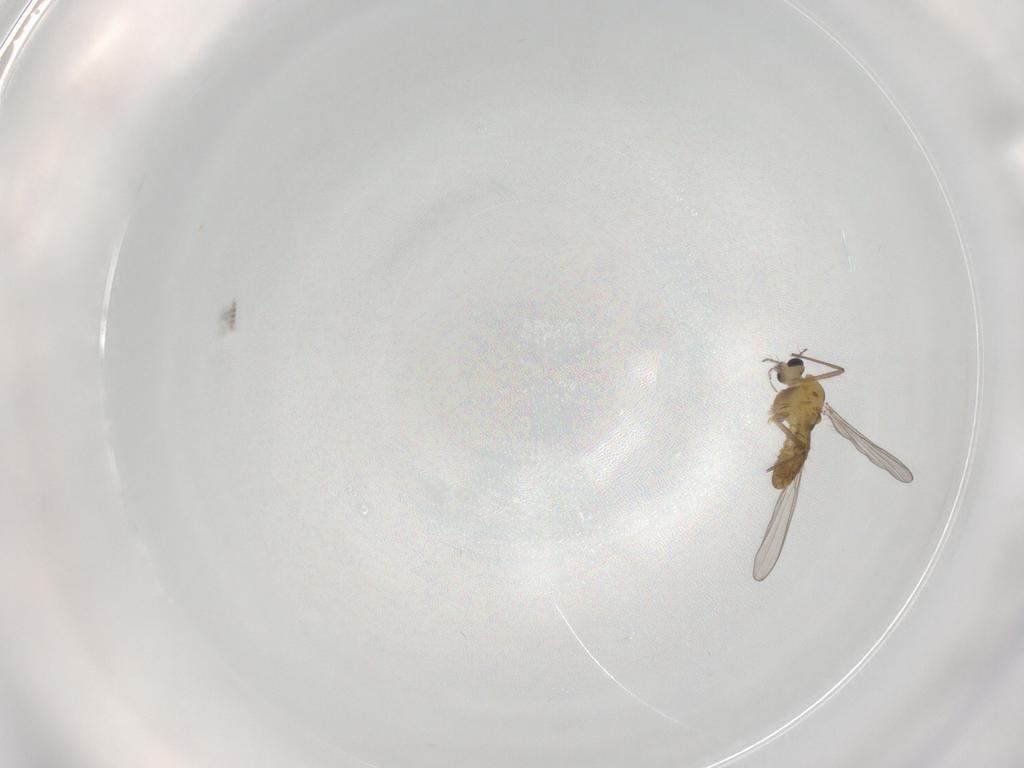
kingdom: Animalia
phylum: Arthropoda
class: Insecta
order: Diptera
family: Chironomidae
